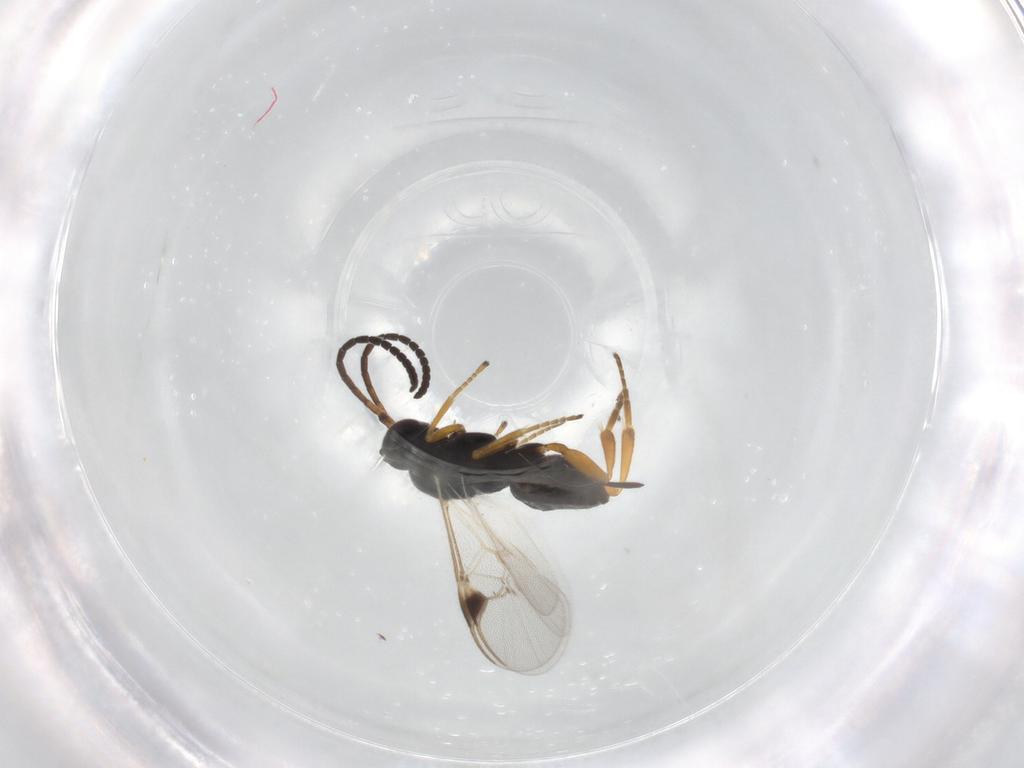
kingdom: Animalia
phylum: Arthropoda
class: Insecta
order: Hymenoptera
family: Braconidae
